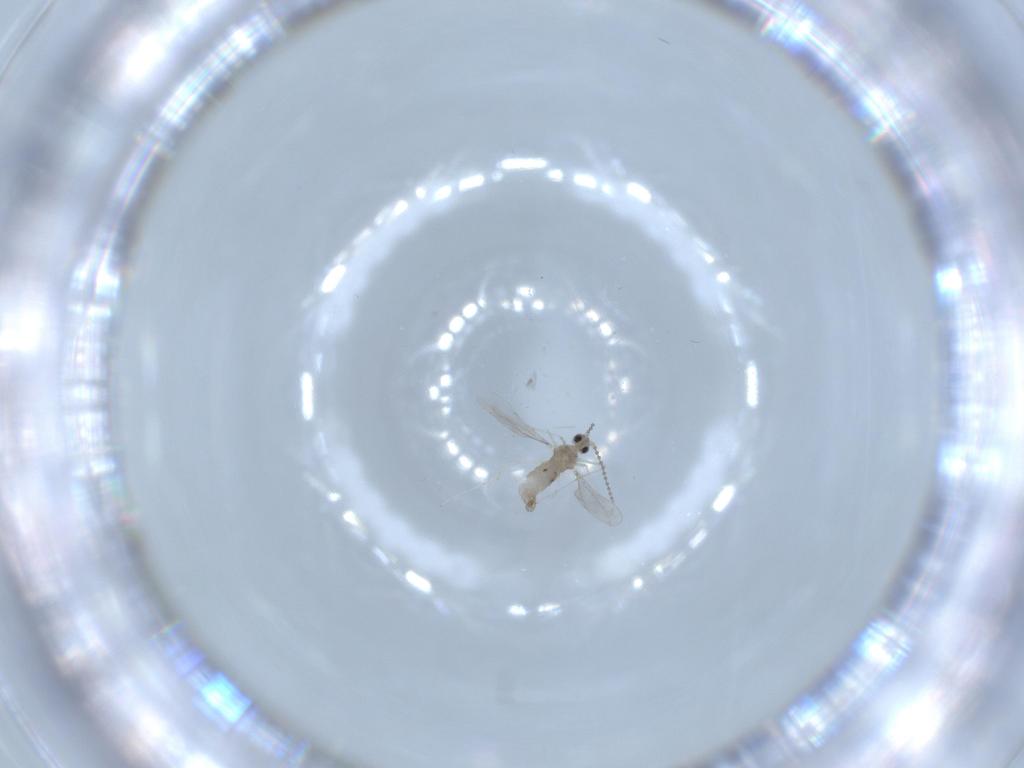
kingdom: Animalia
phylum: Arthropoda
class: Insecta
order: Diptera
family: Cecidomyiidae
